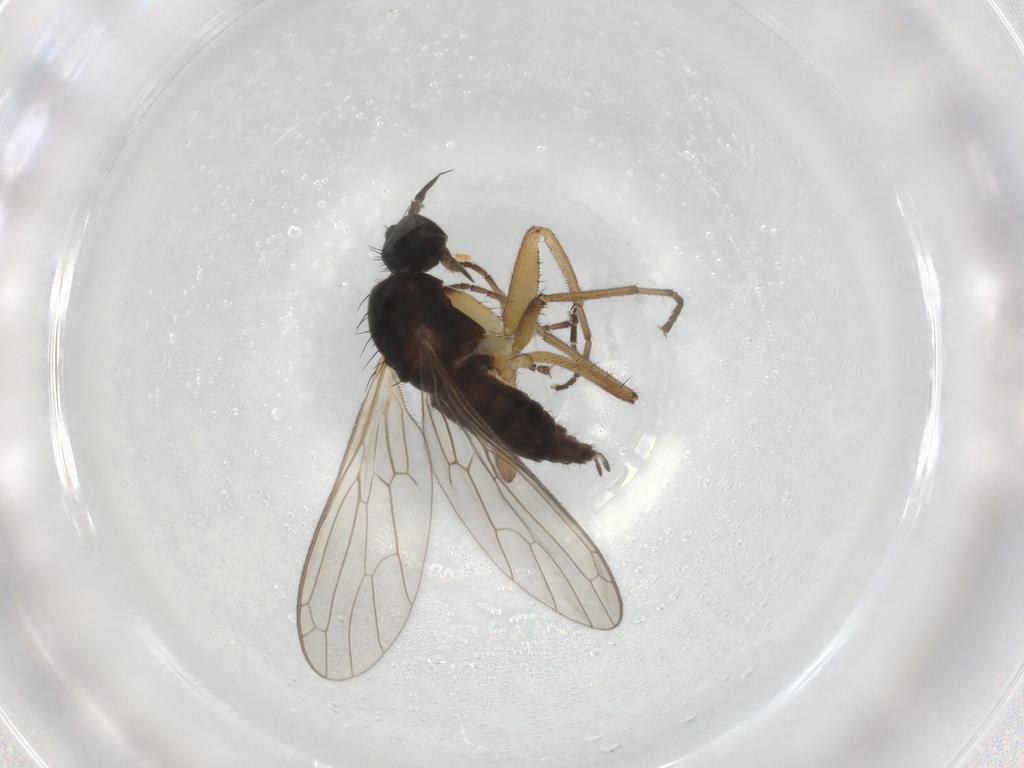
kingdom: Animalia
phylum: Arthropoda
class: Insecta
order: Diptera
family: Empididae
